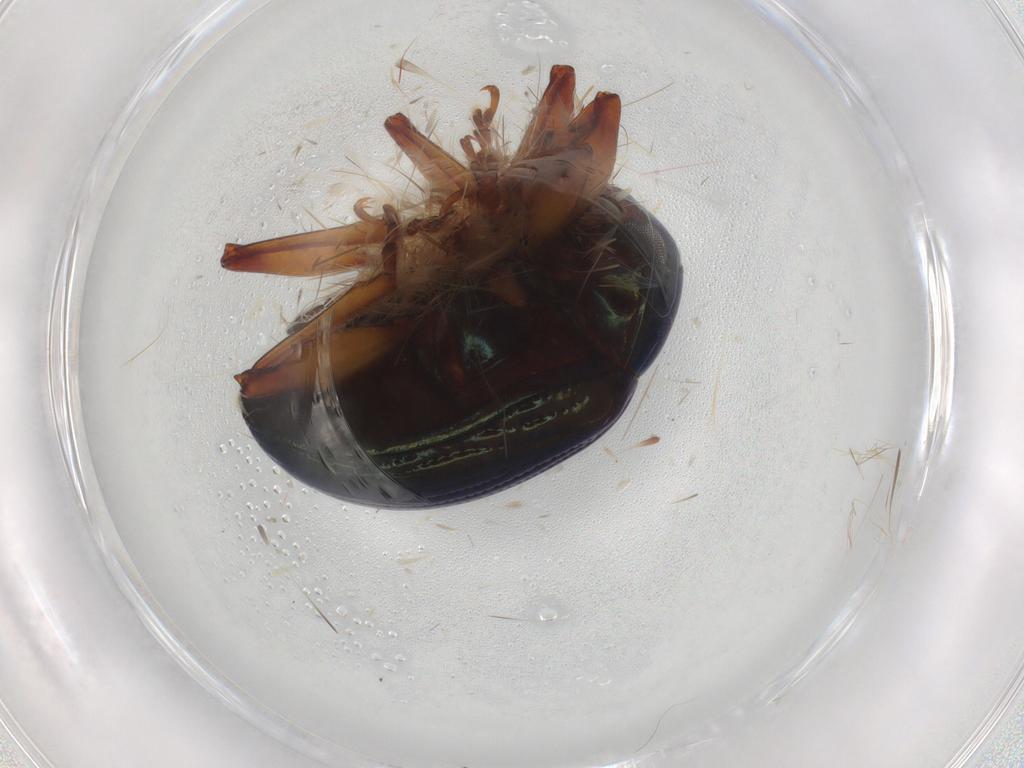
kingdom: Animalia
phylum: Arthropoda
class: Insecta
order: Coleoptera
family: Chrysomelidae
